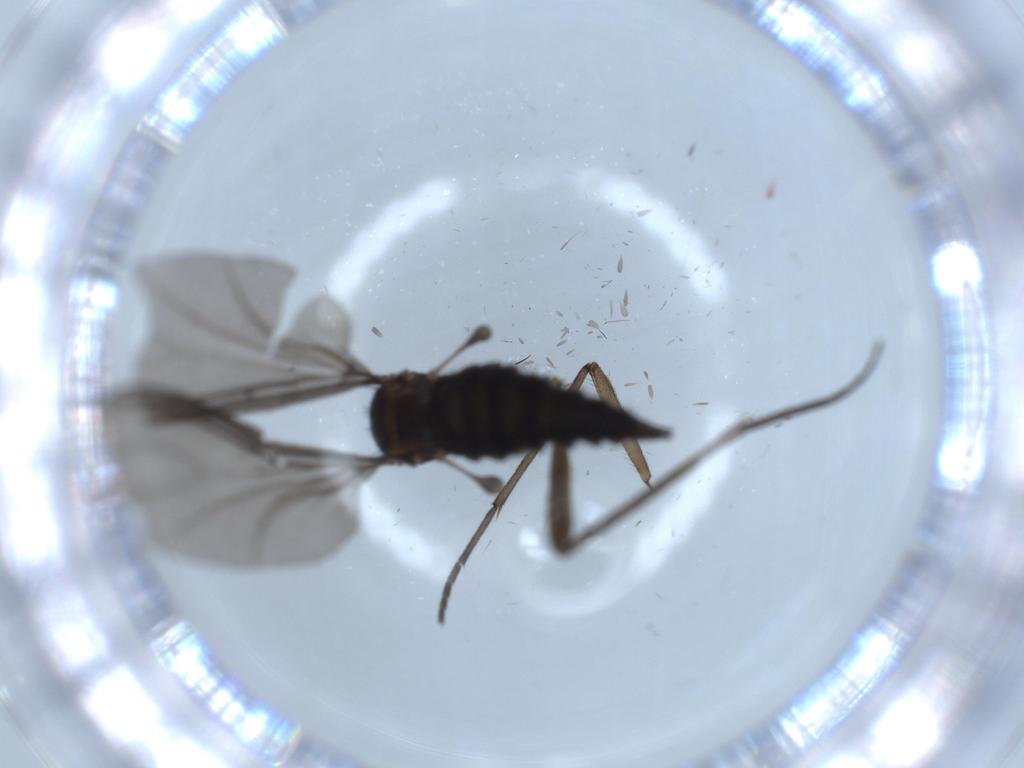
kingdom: Animalia
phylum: Arthropoda
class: Insecta
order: Diptera
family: Sciaridae
